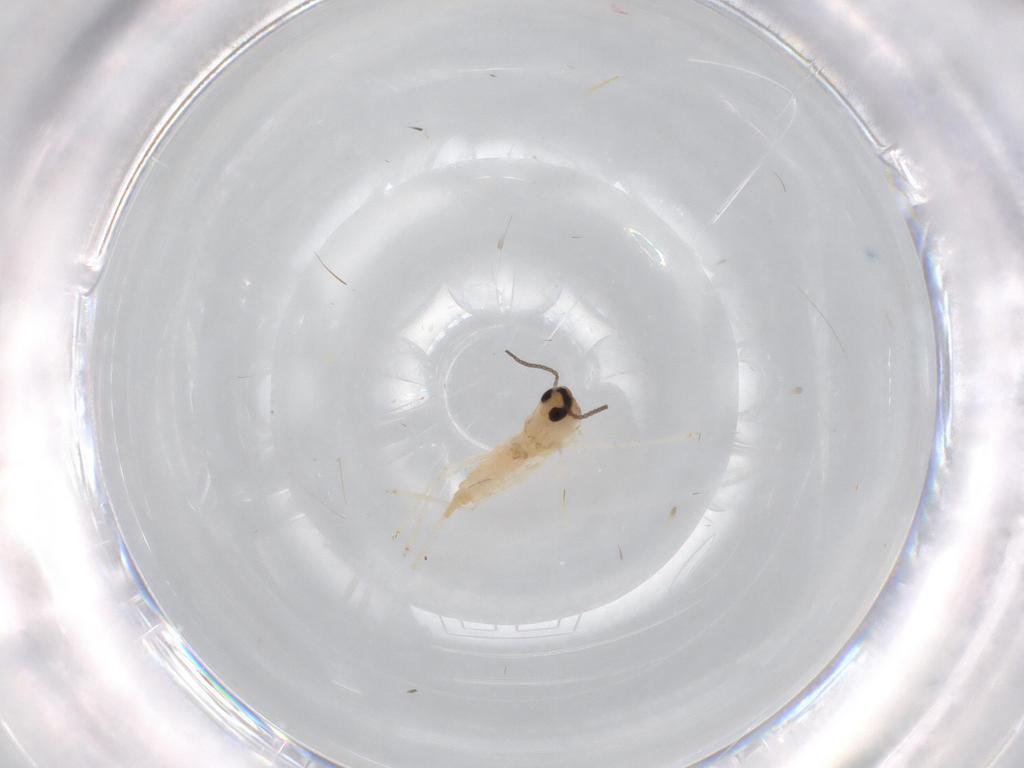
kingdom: Animalia
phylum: Arthropoda
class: Insecta
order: Diptera
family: Cecidomyiidae
